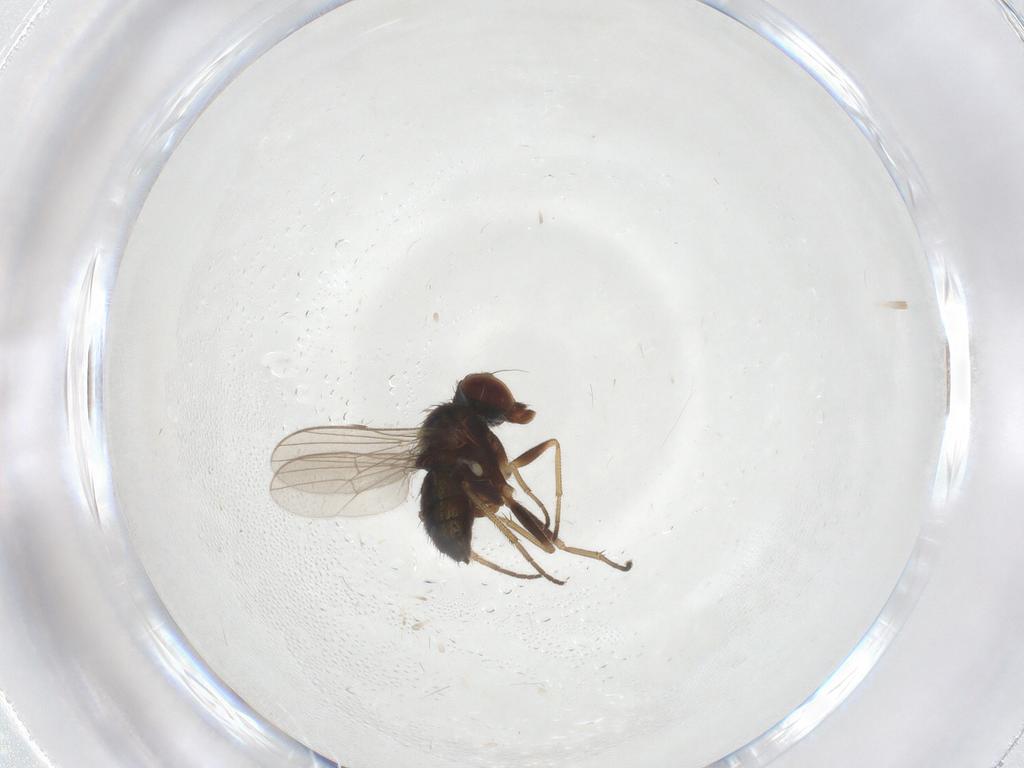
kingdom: Animalia
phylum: Arthropoda
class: Insecta
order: Diptera
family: Dolichopodidae
